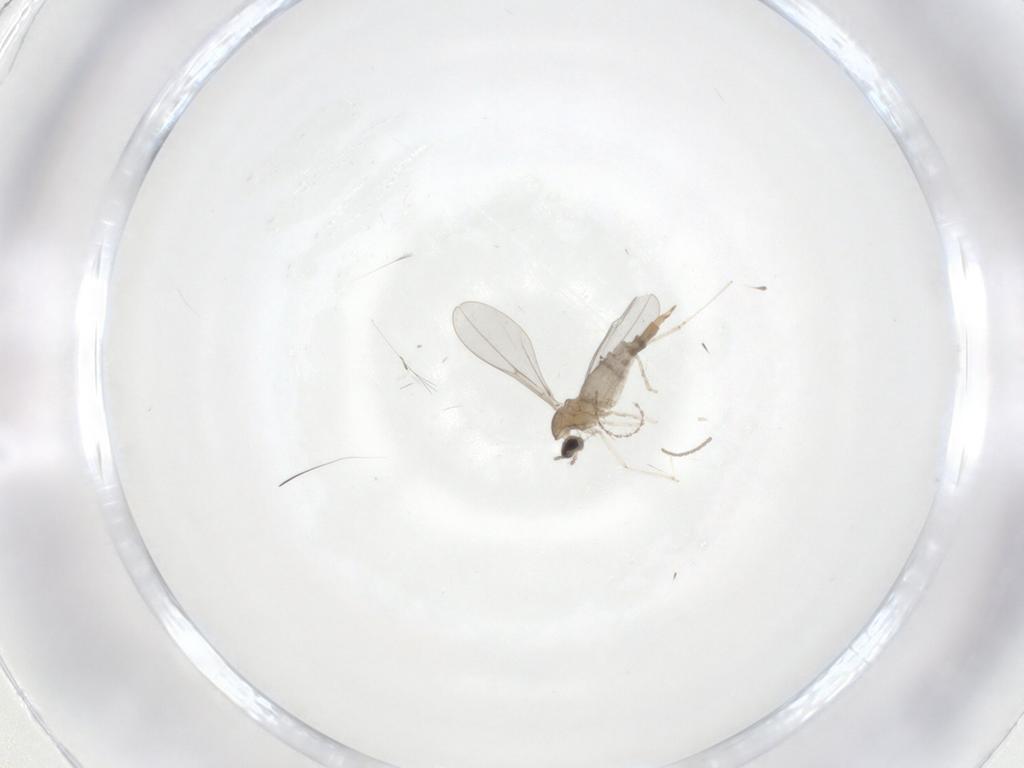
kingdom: Animalia
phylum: Arthropoda
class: Insecta
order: Diptera
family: Cecidomyiidae
